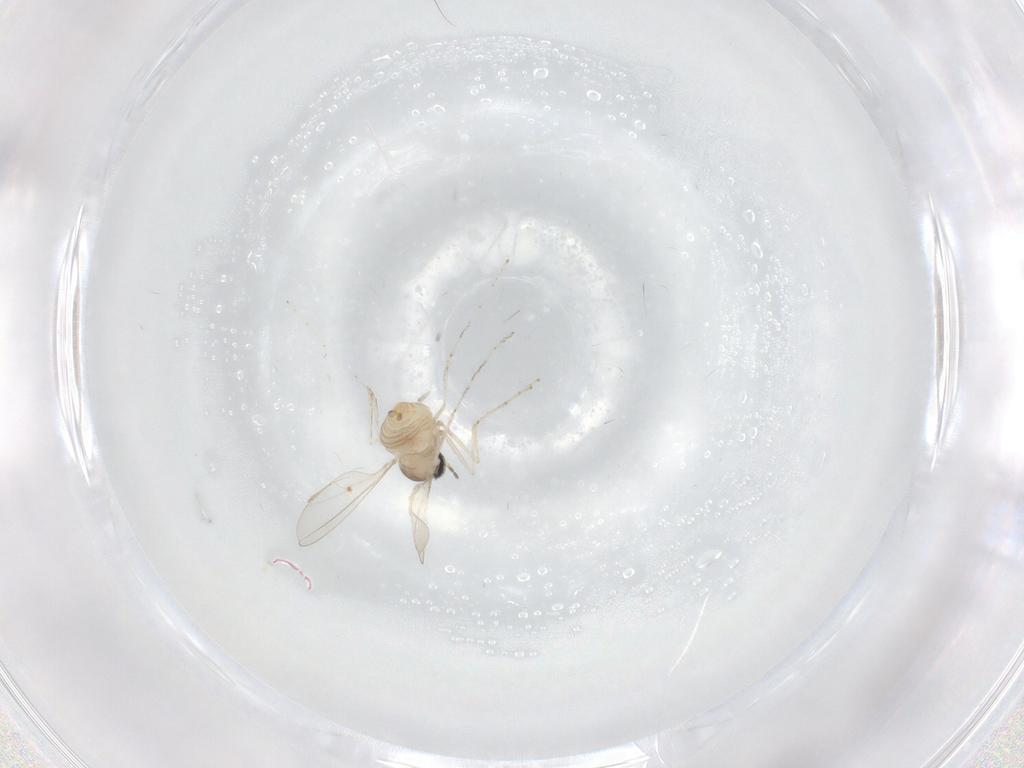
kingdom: Animalia
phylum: Arthropoda
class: Insecta
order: Diptera
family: Cecidomyiidae
